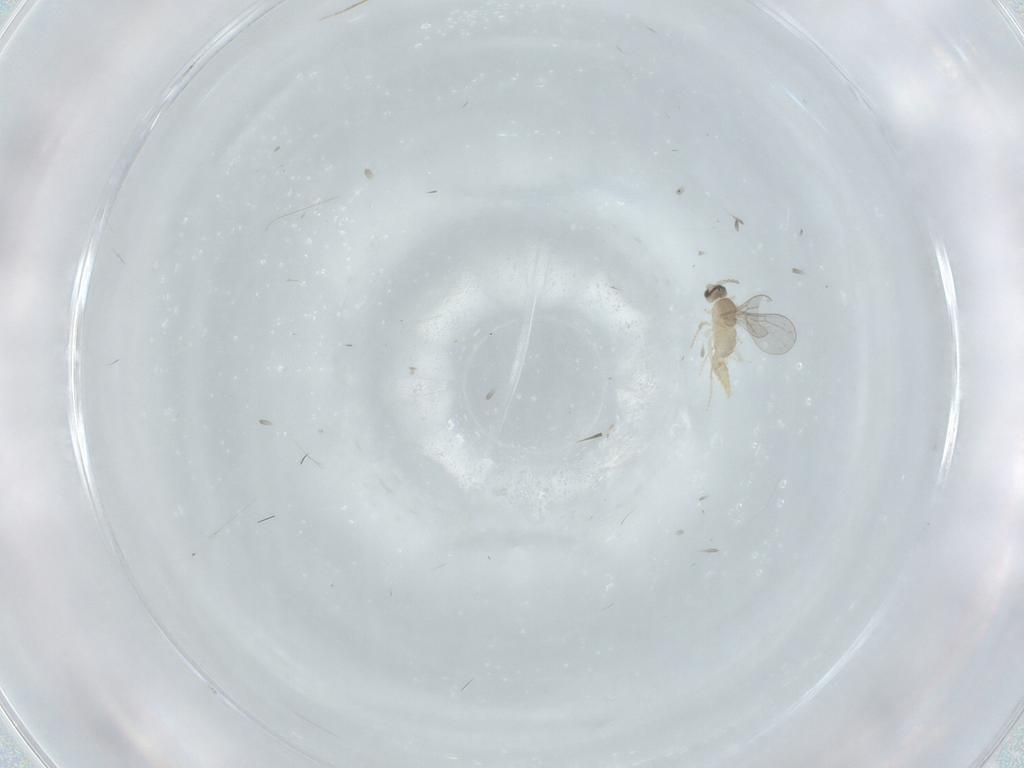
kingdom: Animalia
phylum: Arthropoda
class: Insecta
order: Diptera
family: Cecidomyiidae
